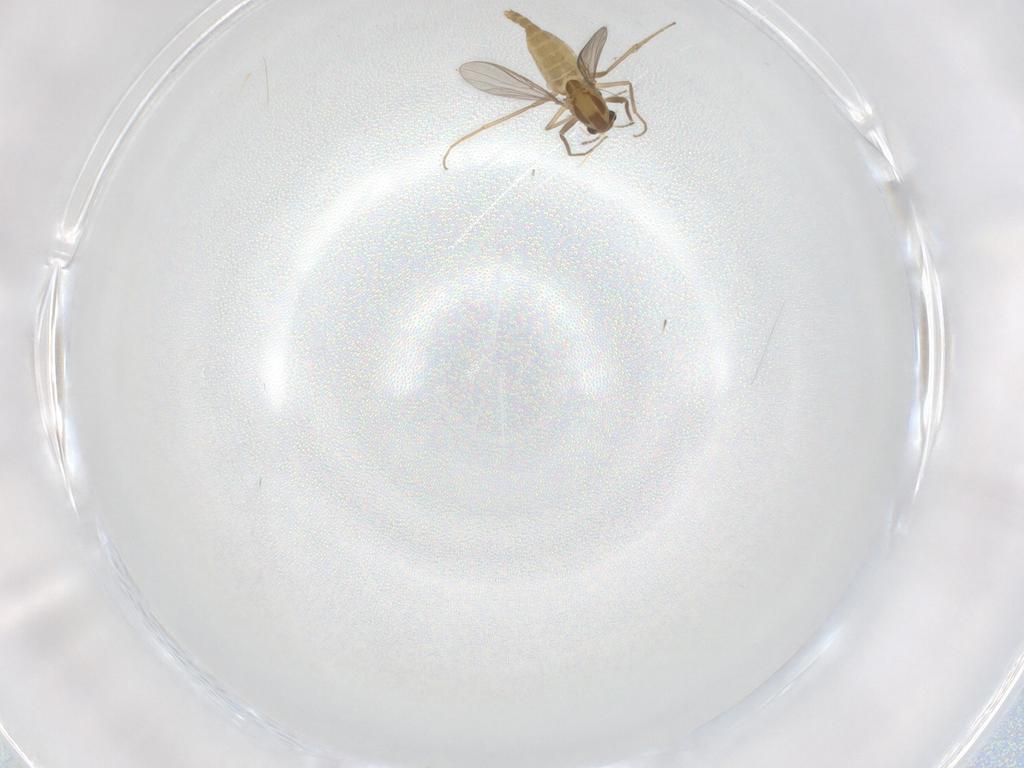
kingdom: Animalia
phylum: Arthropoda
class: Insecta
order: Diptera
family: Chironomidae
